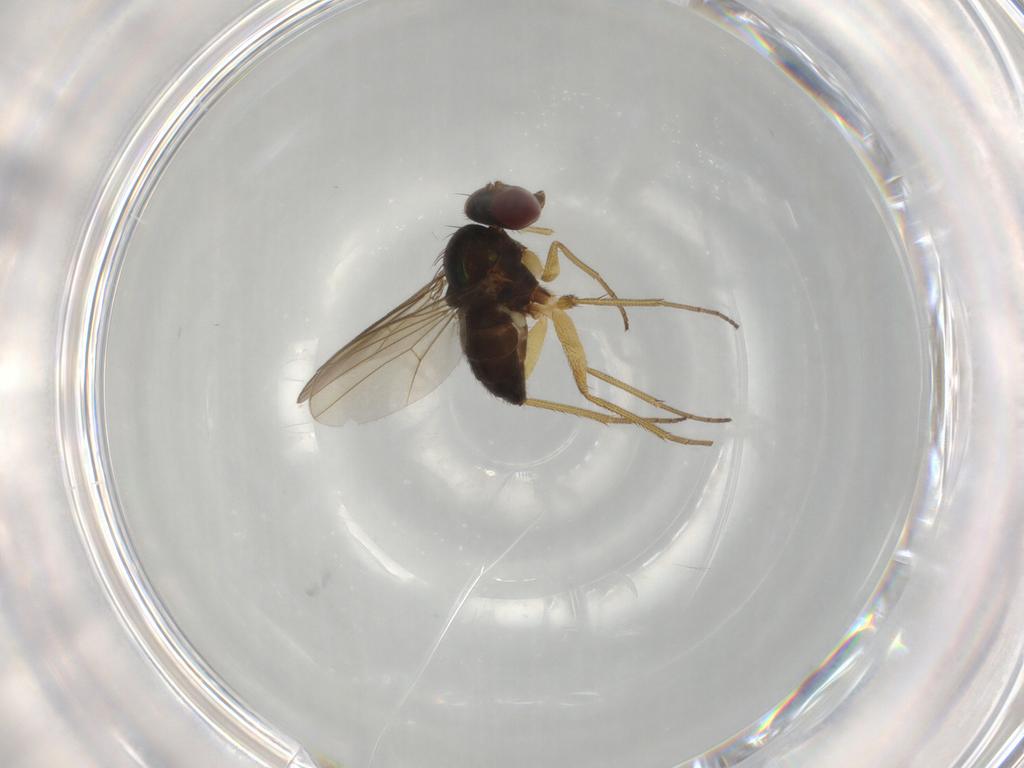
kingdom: Animalia
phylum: Arthropoda
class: Insecta
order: Diptera
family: Dolichopodidae
